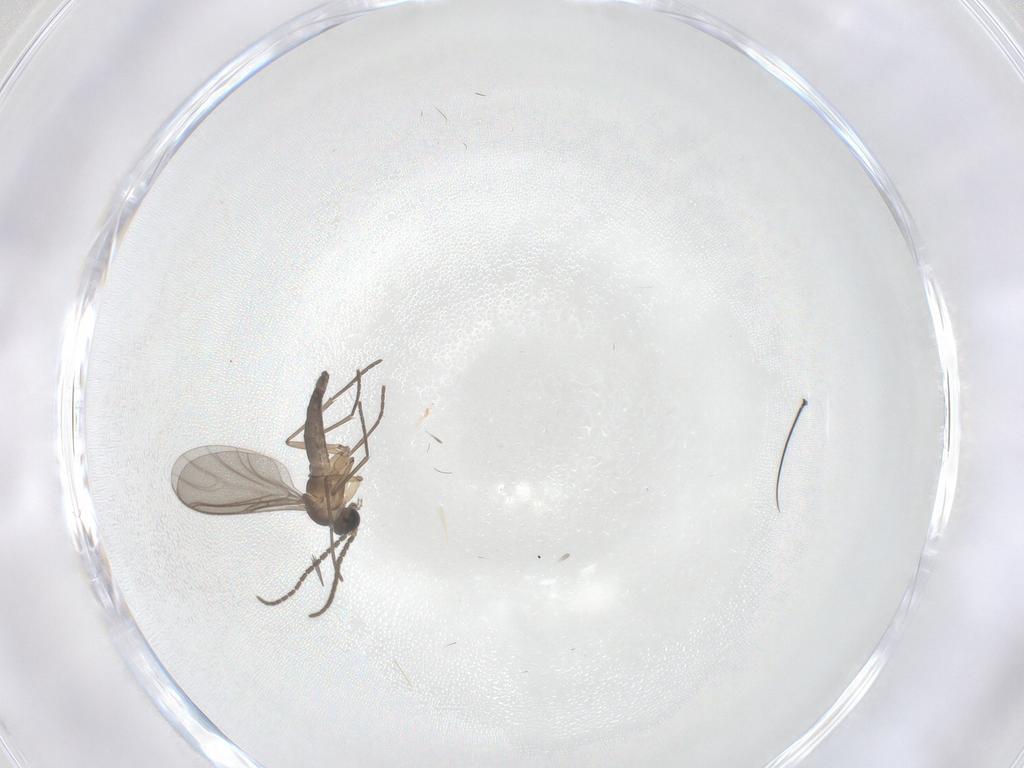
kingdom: Animalia
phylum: Arthropoda
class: Insecta
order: Diptera
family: Sciaridae
